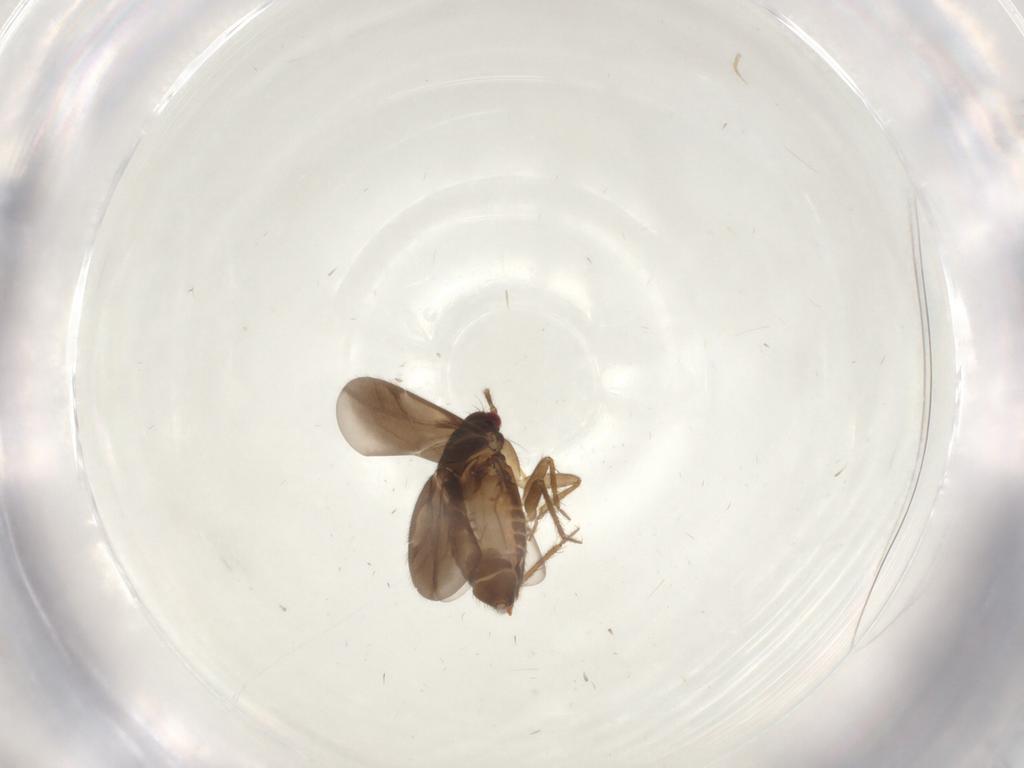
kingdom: Animalia
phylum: Arthropoda
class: Insecta
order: Hemiptera
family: Ceratocombidae
